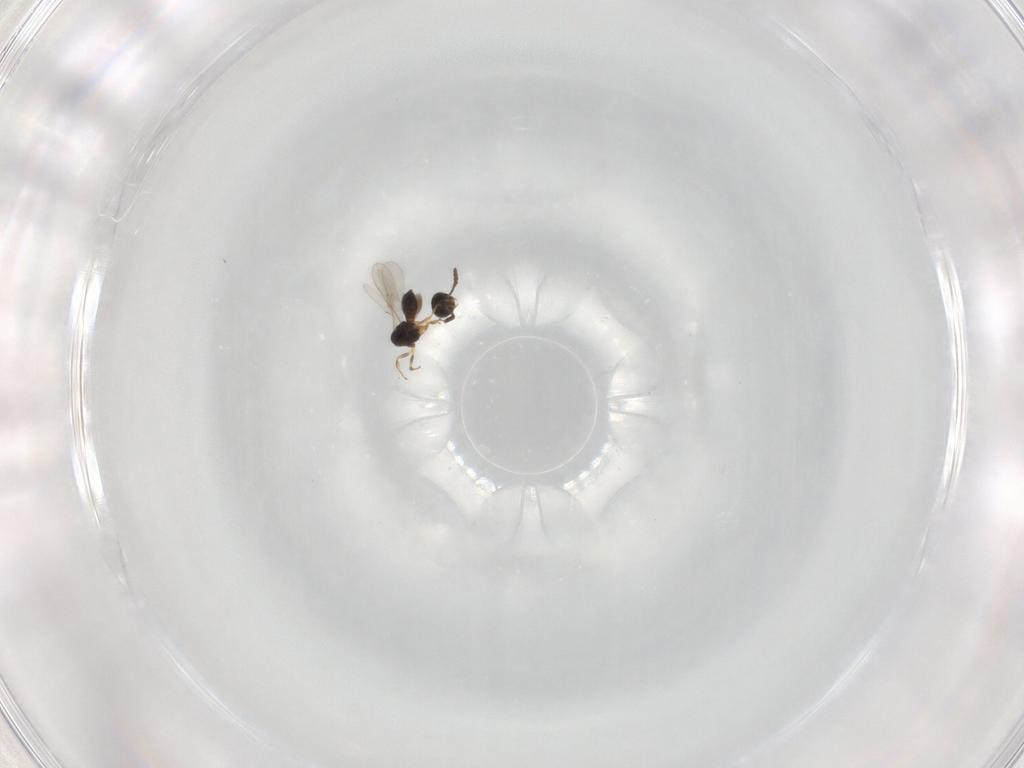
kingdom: Animalia
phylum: Arthropoda
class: Insecta
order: Hymenoptera
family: Scelionidae
